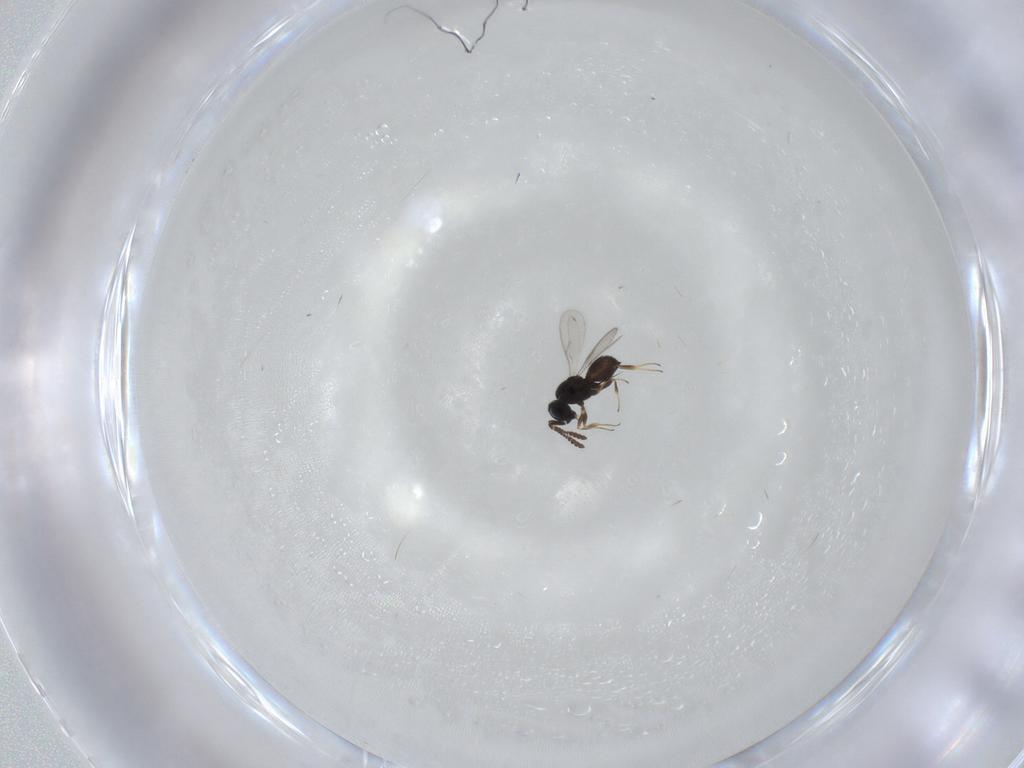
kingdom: Animalia
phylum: Arthropoda
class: Insecta
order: Hymenoptera
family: Scelionidae
